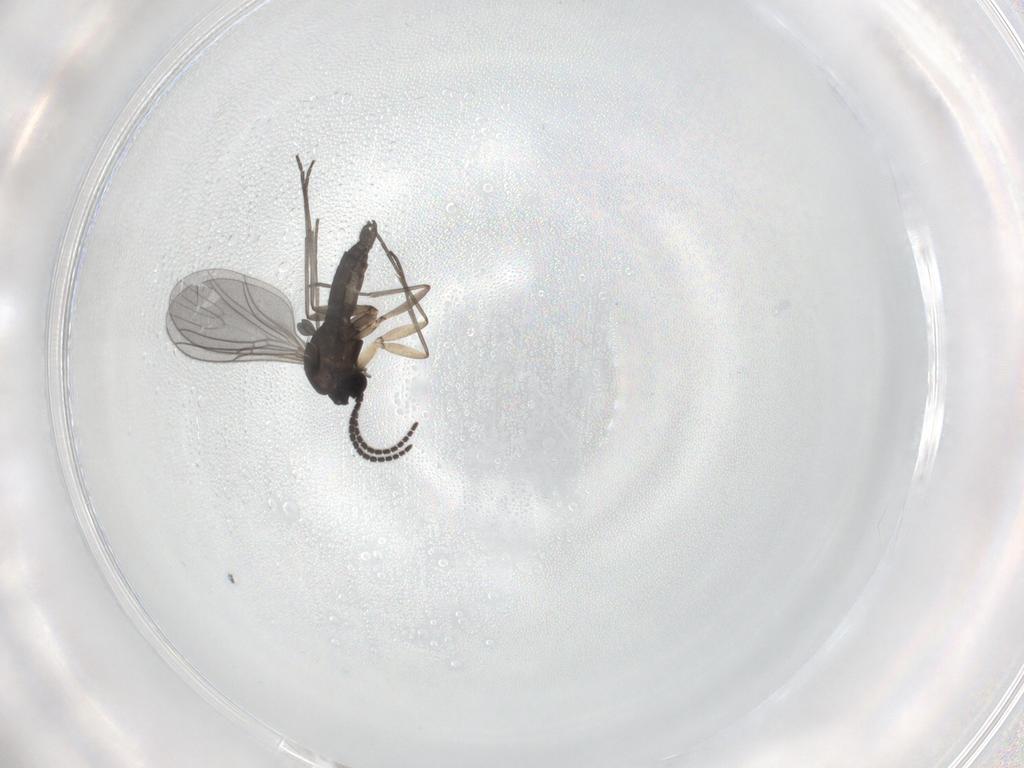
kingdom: Animalia
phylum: Arthropoda
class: Insecta
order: Diptera
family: Sciaridae
